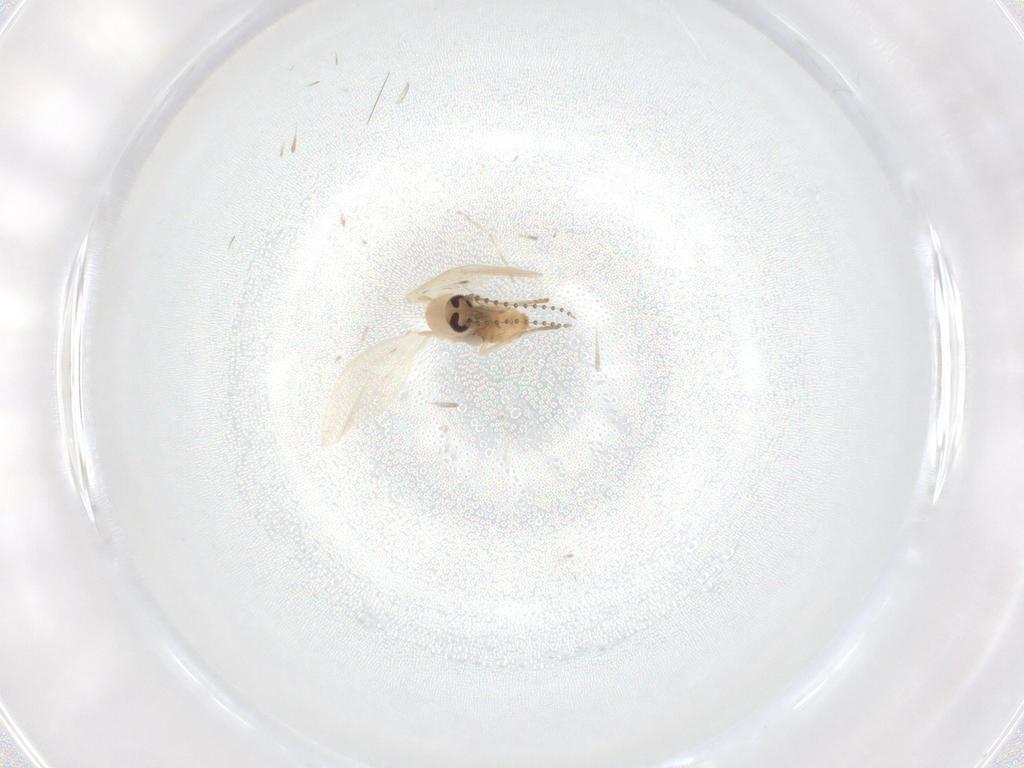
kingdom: Animalia
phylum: Arthropoda
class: Insecta
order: Diptera
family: Psychodidae
